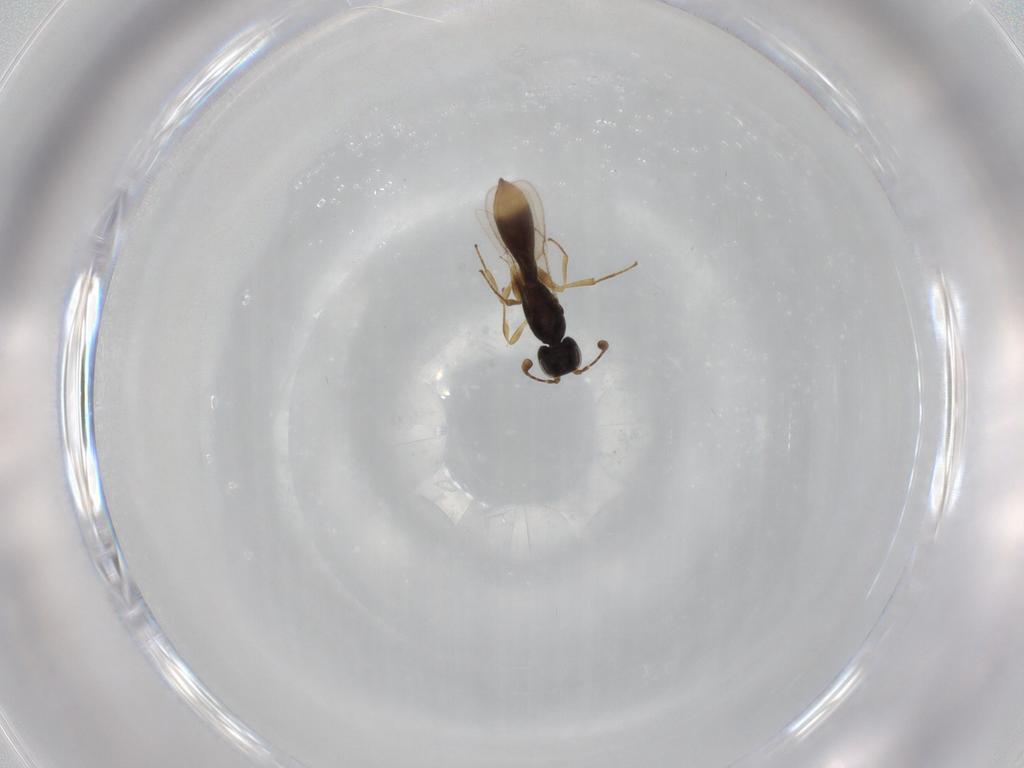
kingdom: Animalia
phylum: Arthropoda
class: Insecta
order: Hymenoptera
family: Scelionidae
